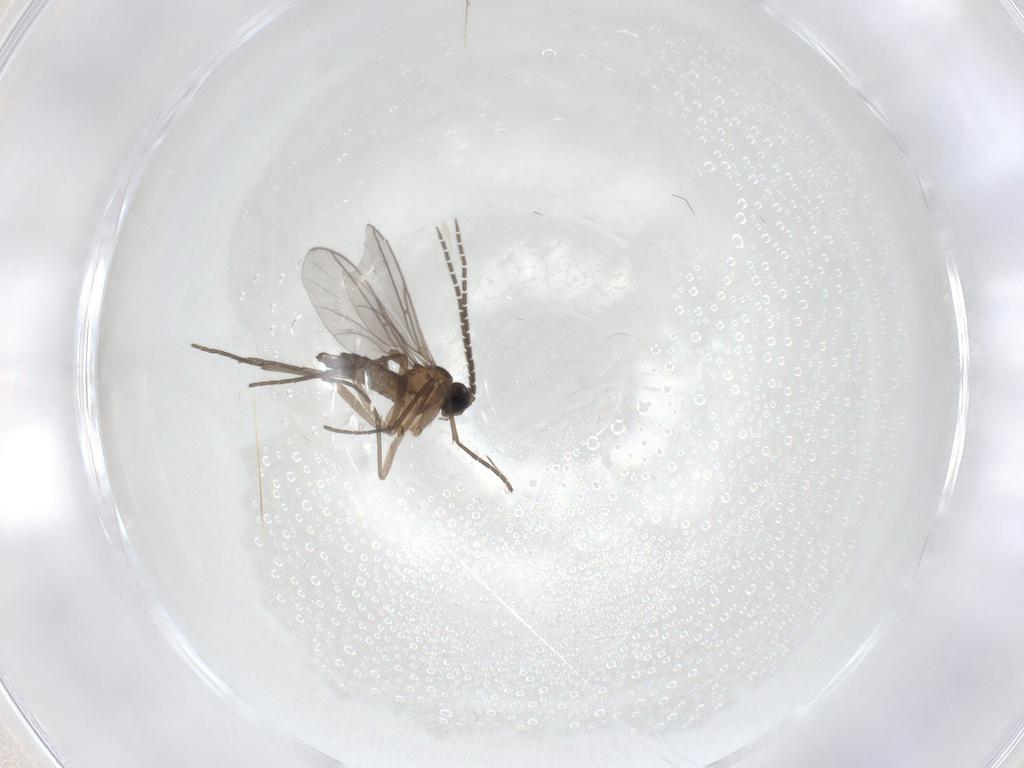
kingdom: Animalia
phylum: Arthropoda
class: Insecta
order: Diptera
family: Sciaridae
